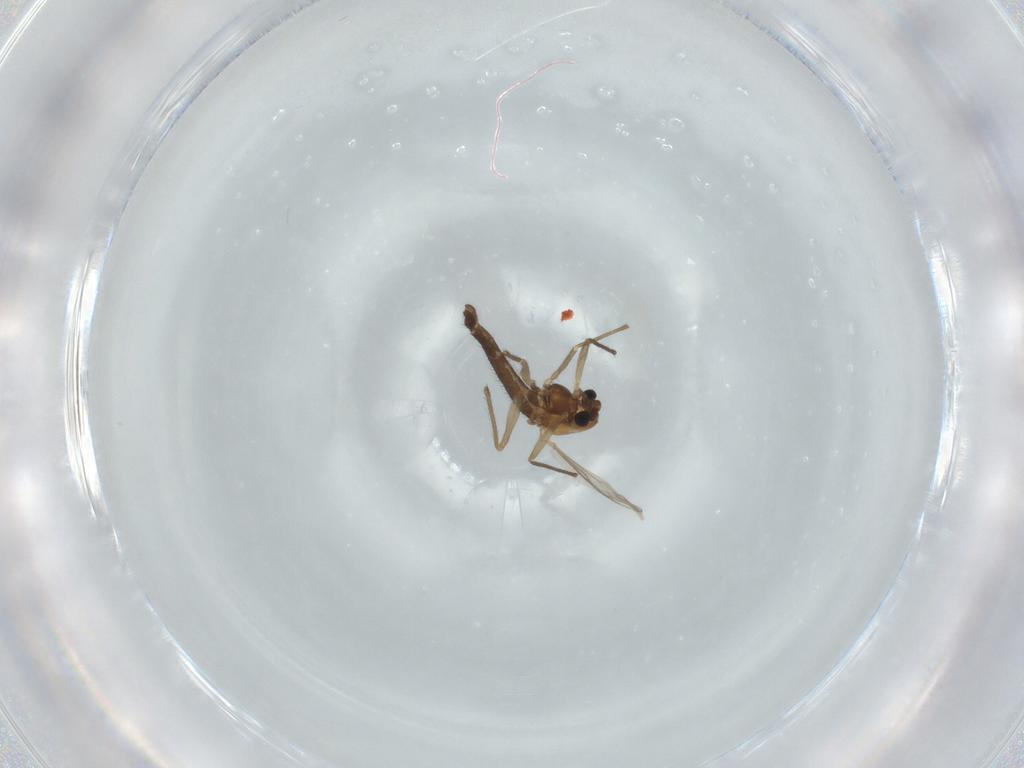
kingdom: Animalia
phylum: Arthropoda
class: Insecta
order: Diptera
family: Chironomidae
